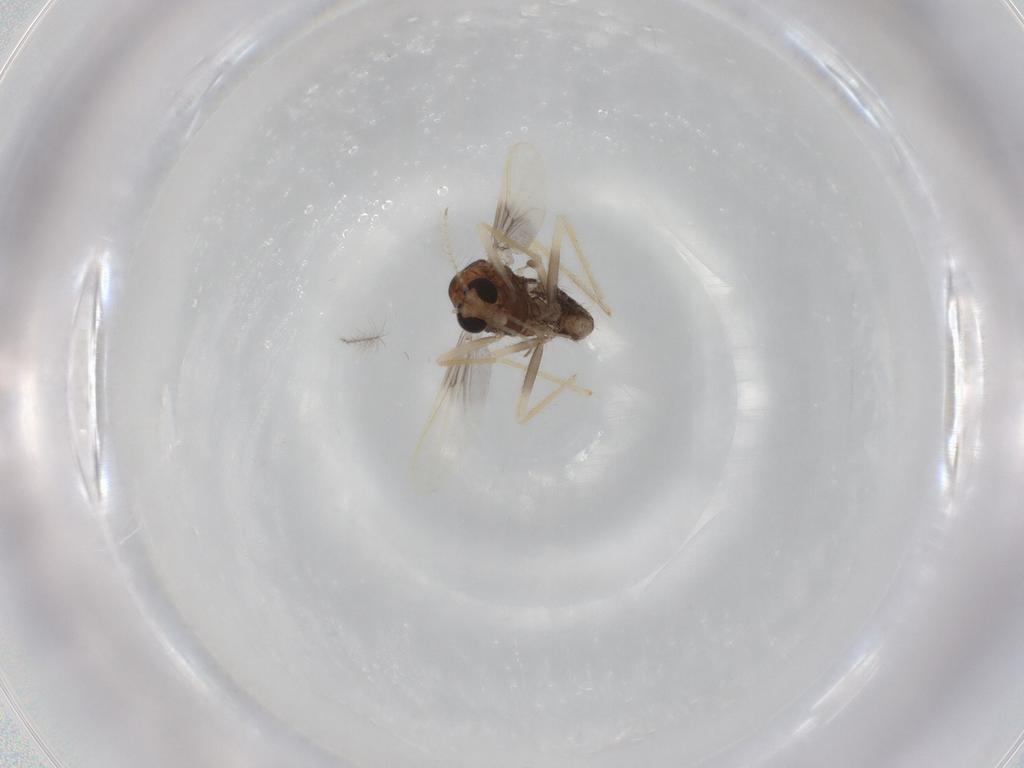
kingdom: Animalia
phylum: Arthropoda
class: Insecta
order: Diptera
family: Chironomidae
